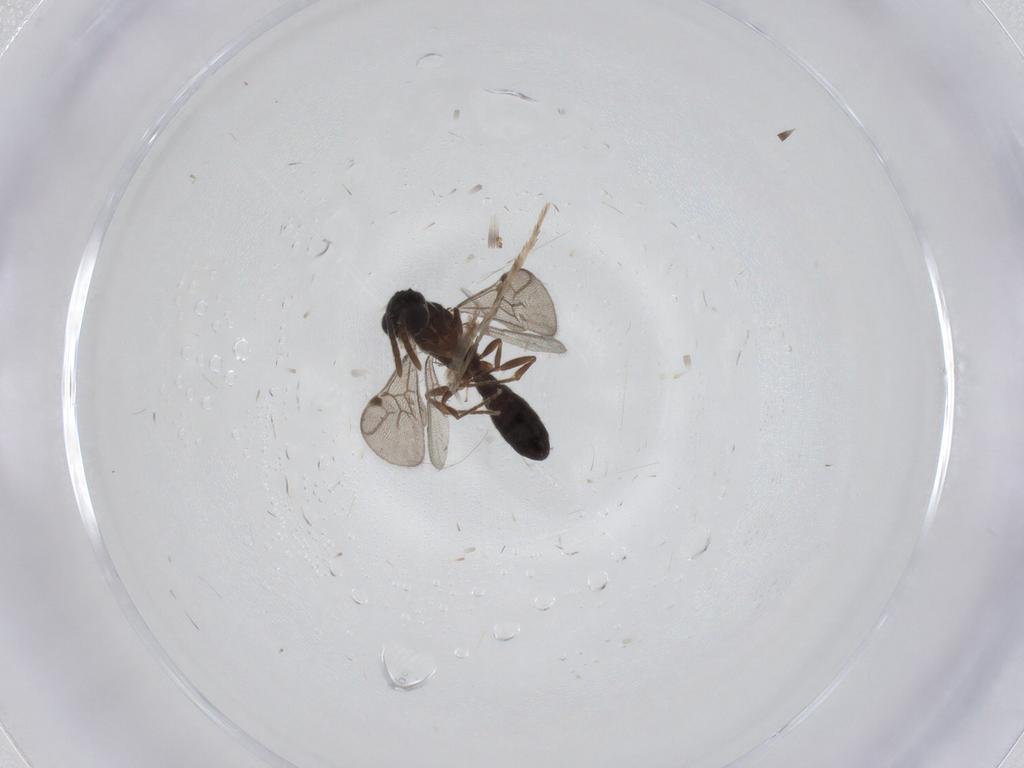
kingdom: Animalia
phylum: Arthropoda
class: Insecta
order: Hymenoptera
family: Formicidae
